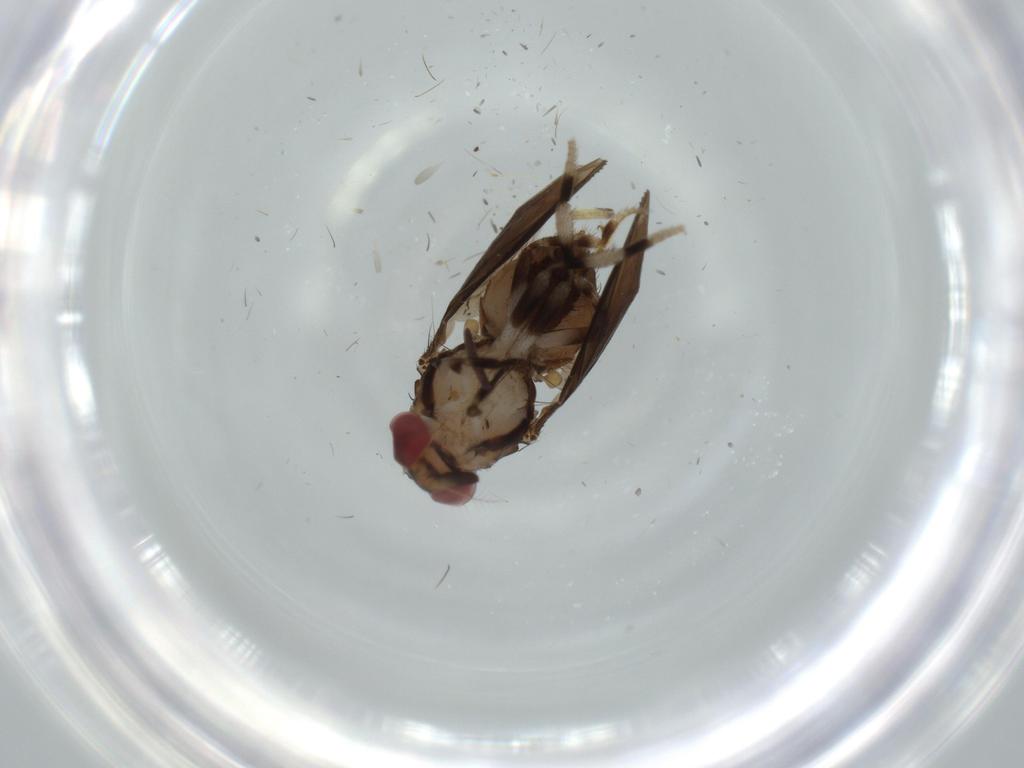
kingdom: Animalia
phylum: Arthropoda
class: Insecta
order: Diptera
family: Drosophilidae
